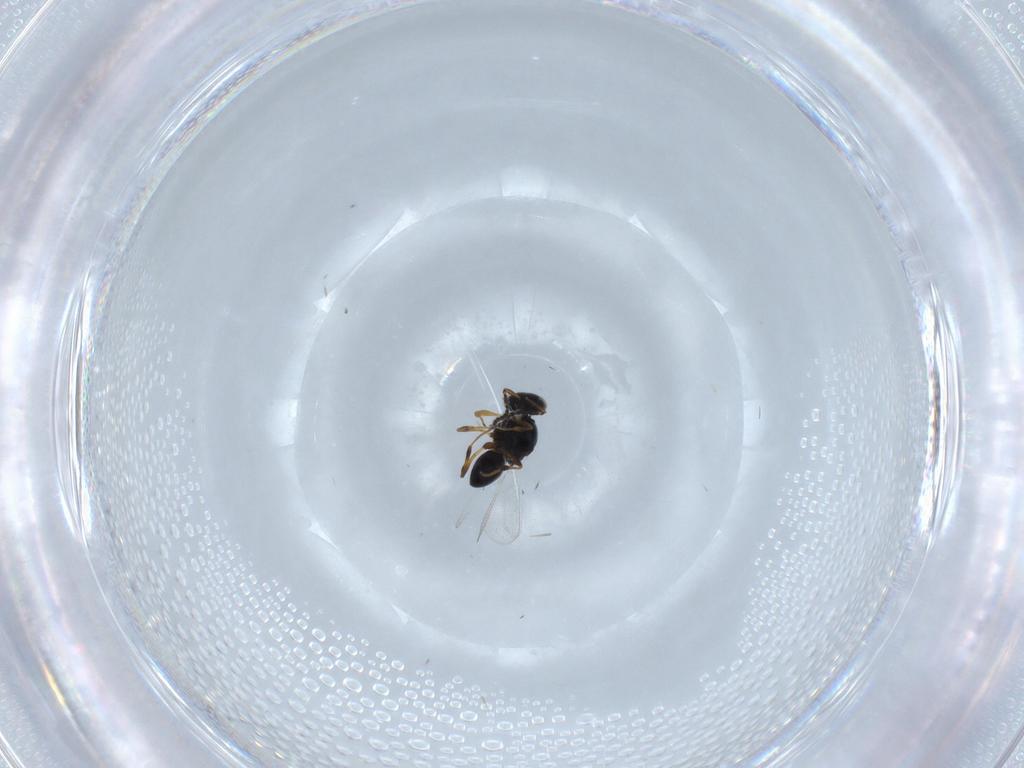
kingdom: Animalia
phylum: Arthropoda
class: Insecta
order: Hymenoptera
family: Platygastridae
